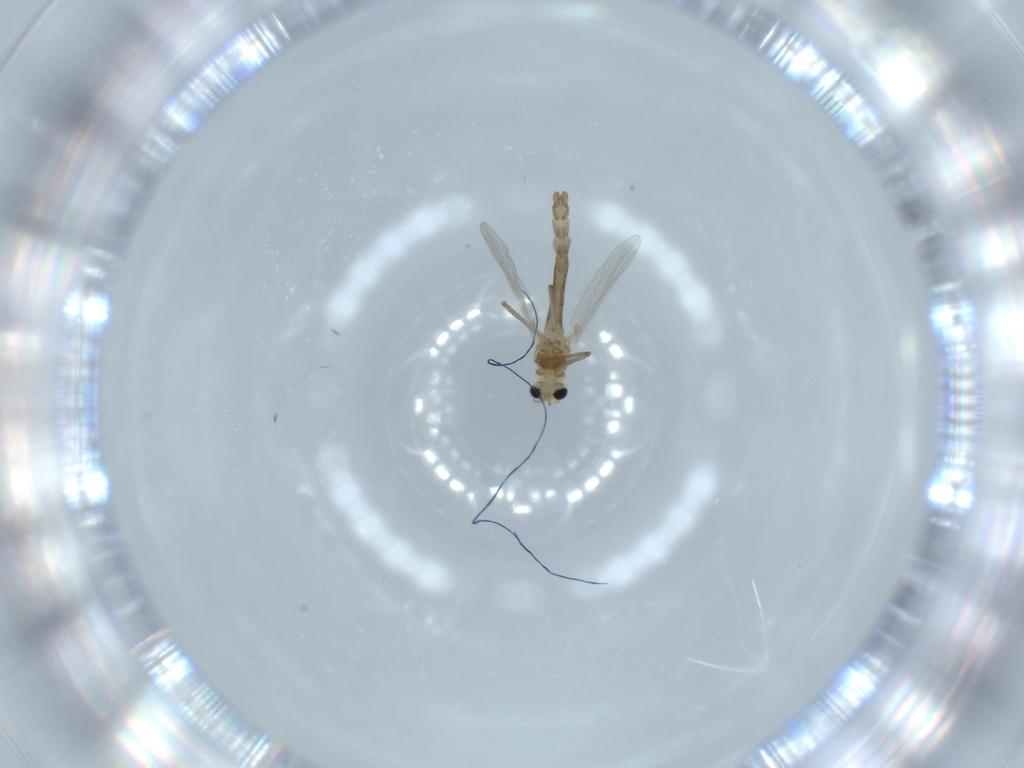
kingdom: Animalia
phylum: Arthropoda
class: Insecta
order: Diptera
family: Chironomidae
